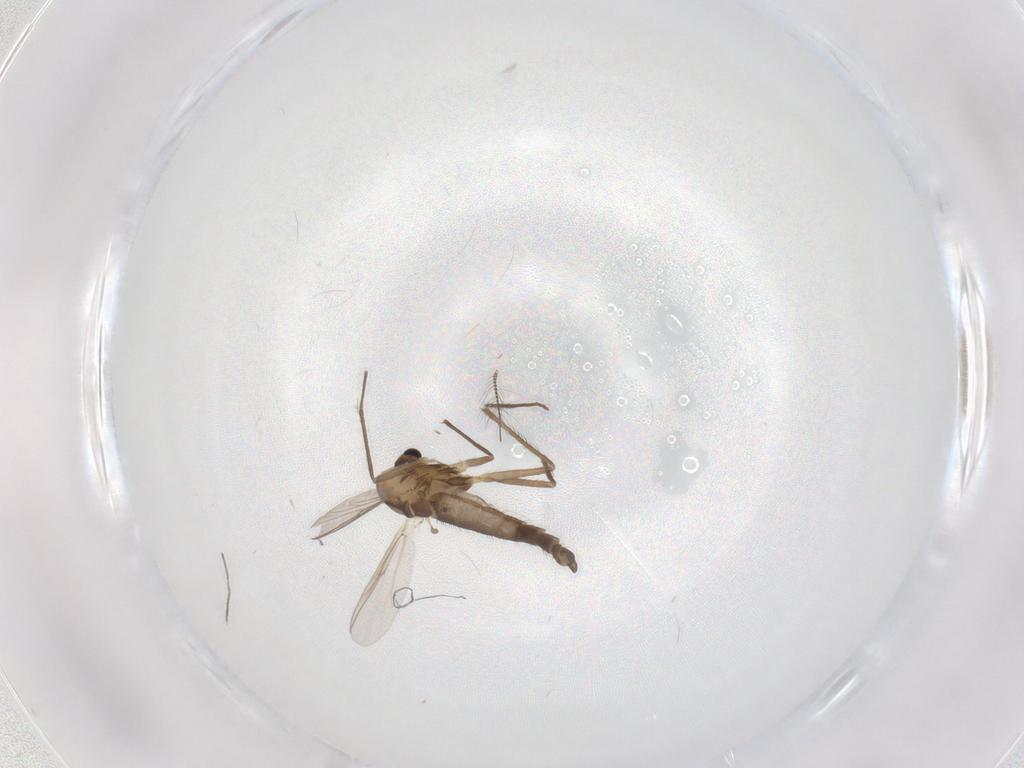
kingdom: Animalia
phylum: Arthropoda
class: Insecta
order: Diptera
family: Chironomidae
